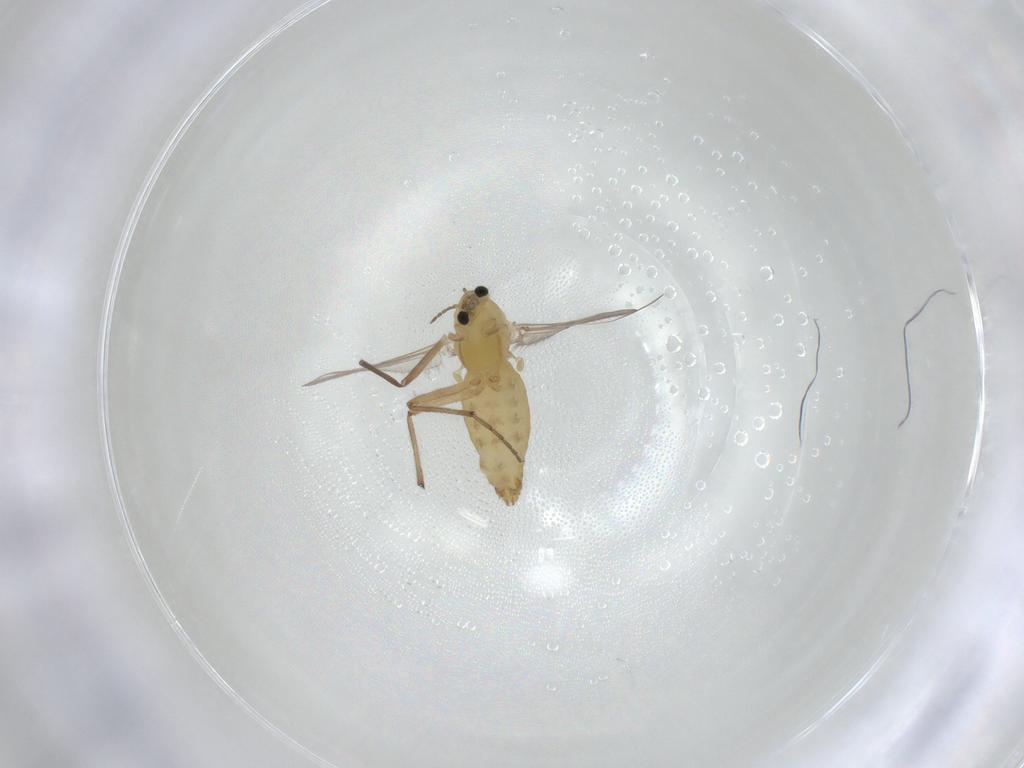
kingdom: Animalia
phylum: Arthropoda
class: Insecta
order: Diptera
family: Chironomidae
